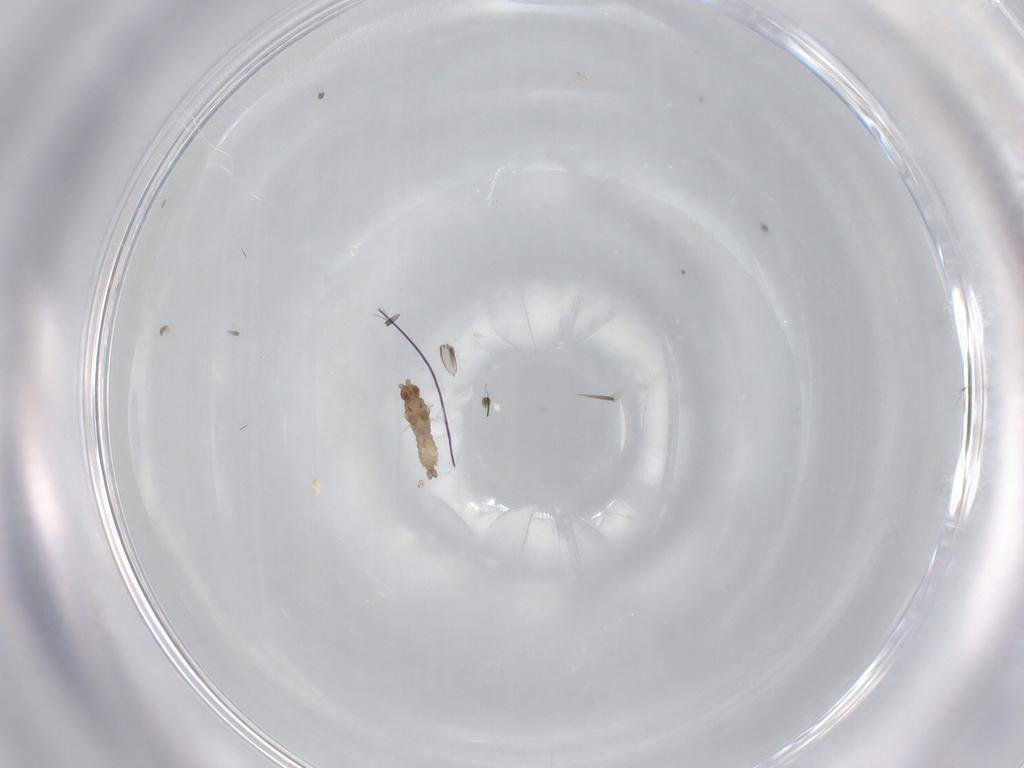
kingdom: Animalia
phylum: Arthropoda
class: Insecta
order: Diptera
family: Cecidomyiidae
